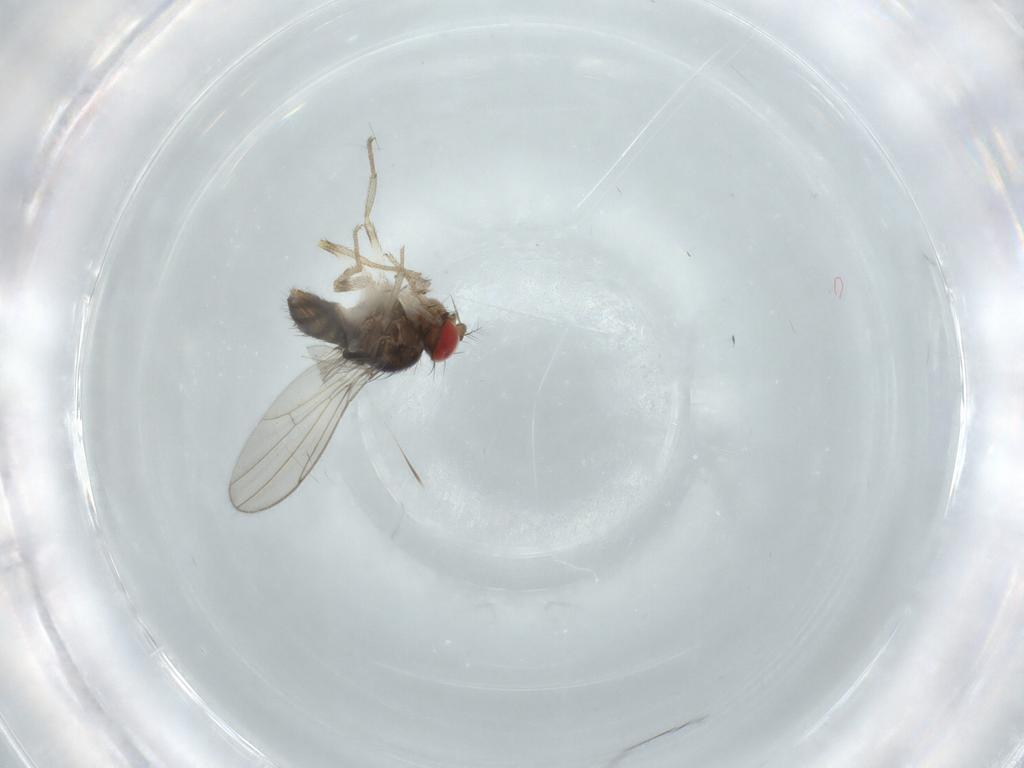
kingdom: Animalia
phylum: Arthropoda
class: Insecta
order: Diptera
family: Drosophilidae
